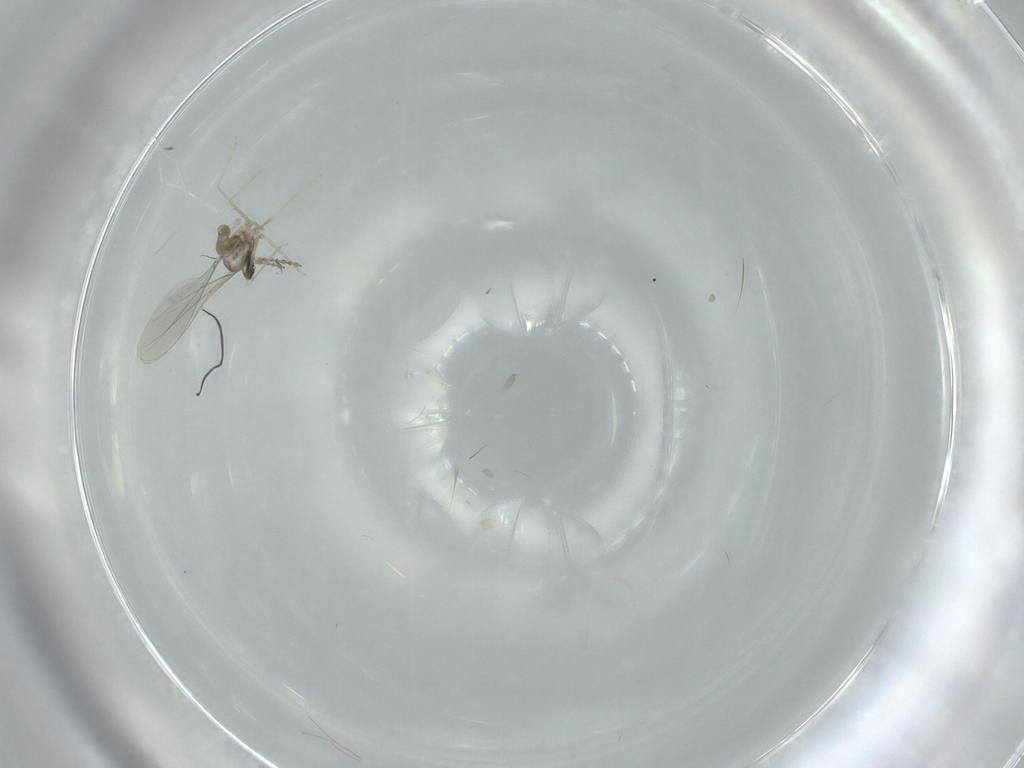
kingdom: Animalia
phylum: Arthropoda
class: Insecta
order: Diptera
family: Cecidomyiidae
